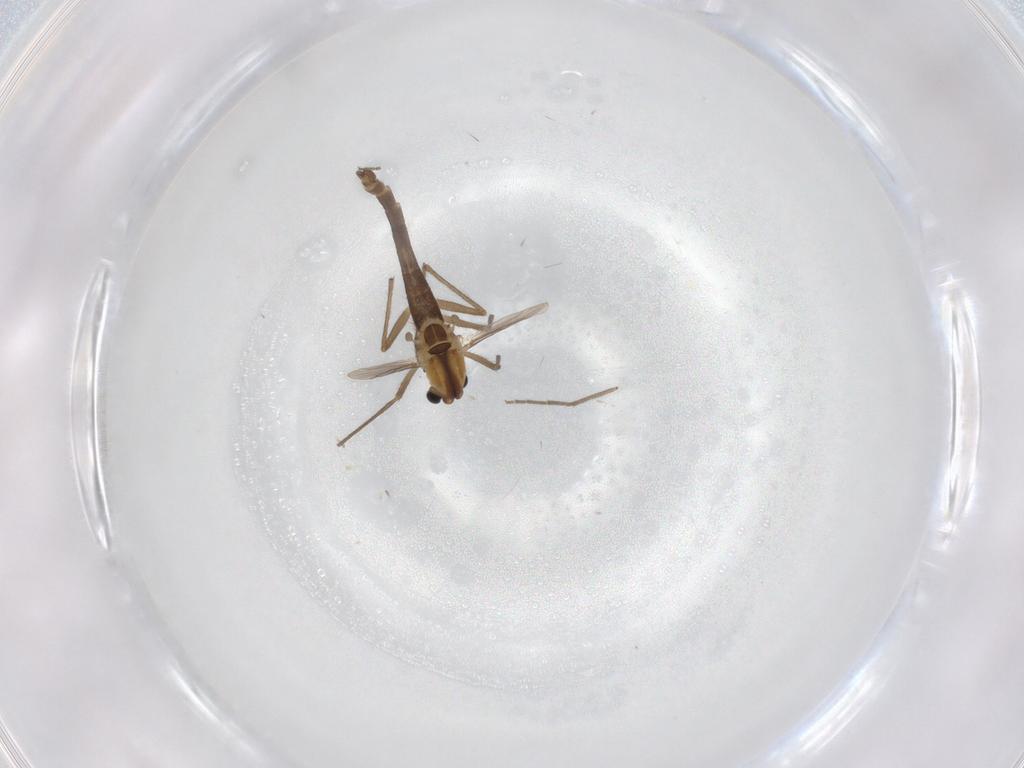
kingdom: Animalia
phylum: Arthropoda
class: Insecta
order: Diptera
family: Chironomidae
